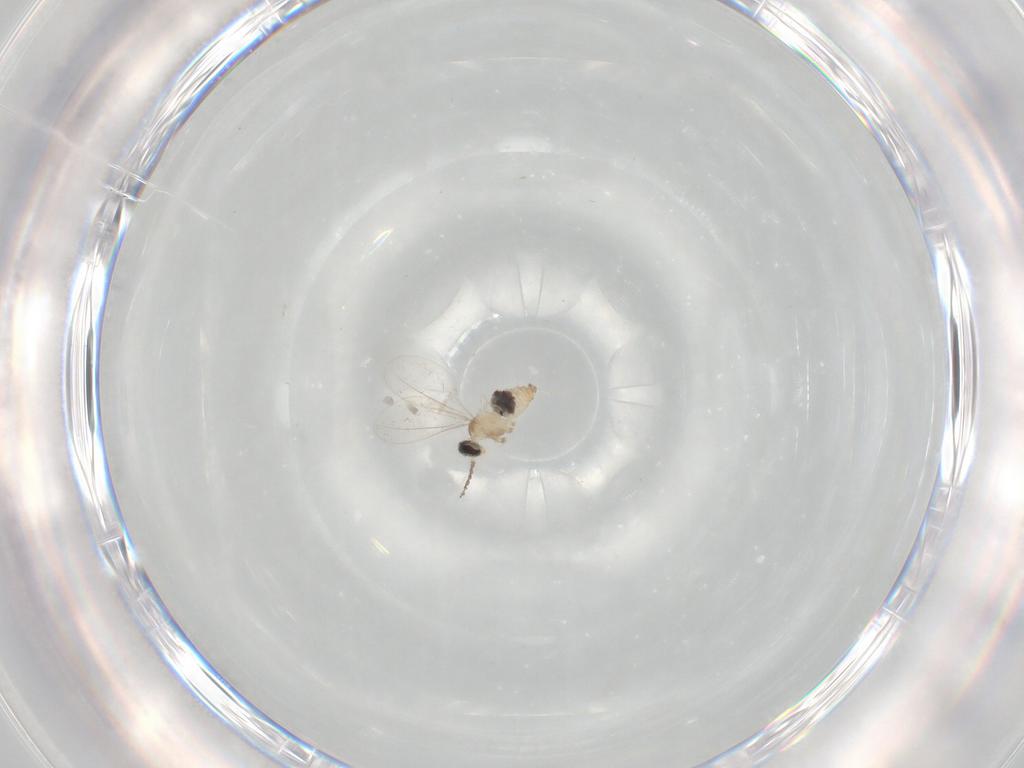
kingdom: Animalia
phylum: Arthropoda
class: Insecta
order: Diptera
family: Cecidomyiidae
